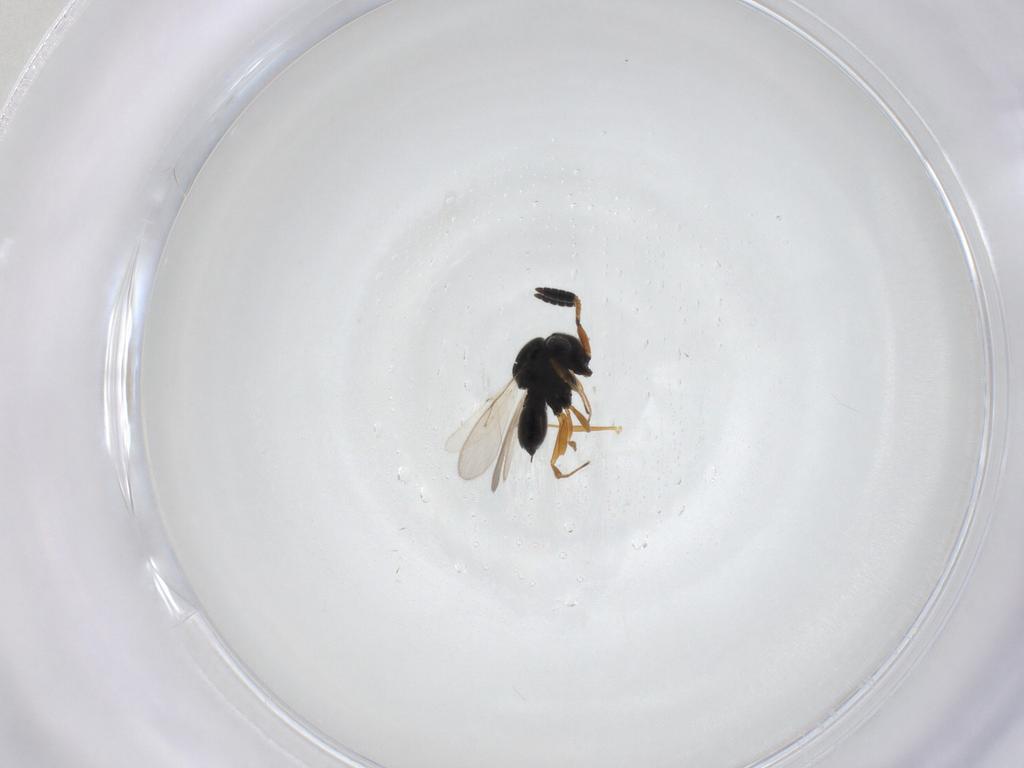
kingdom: Animalia
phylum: Arthropoda
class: Insecta
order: Hymenoptera
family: Scelionidae
